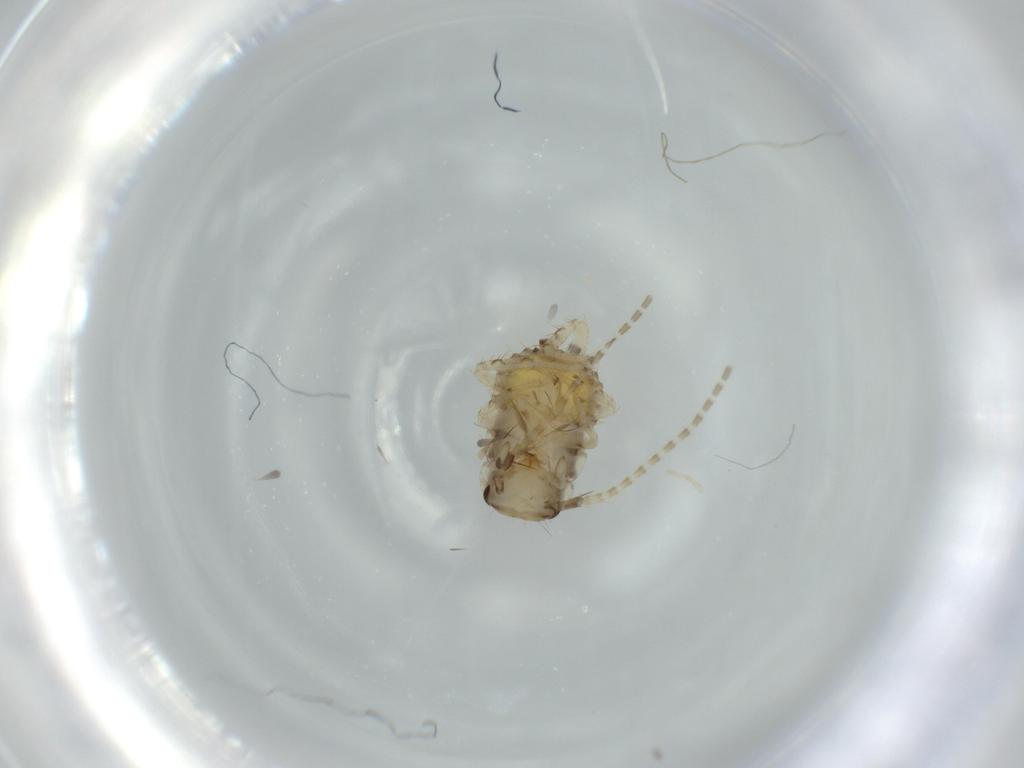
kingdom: Animalia
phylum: Arthropoda
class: Insecta
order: Blattodea
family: Ectobiidae
